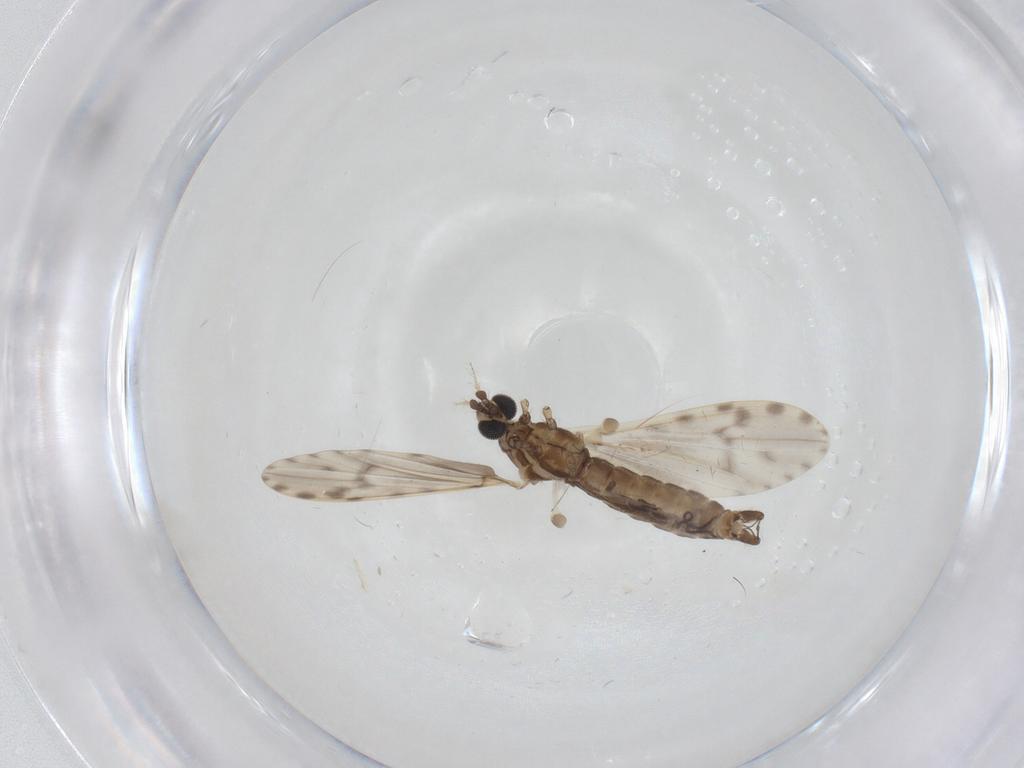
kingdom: Animalia
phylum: Arthropoda
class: Insecta
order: Diptera
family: Limoniidae
